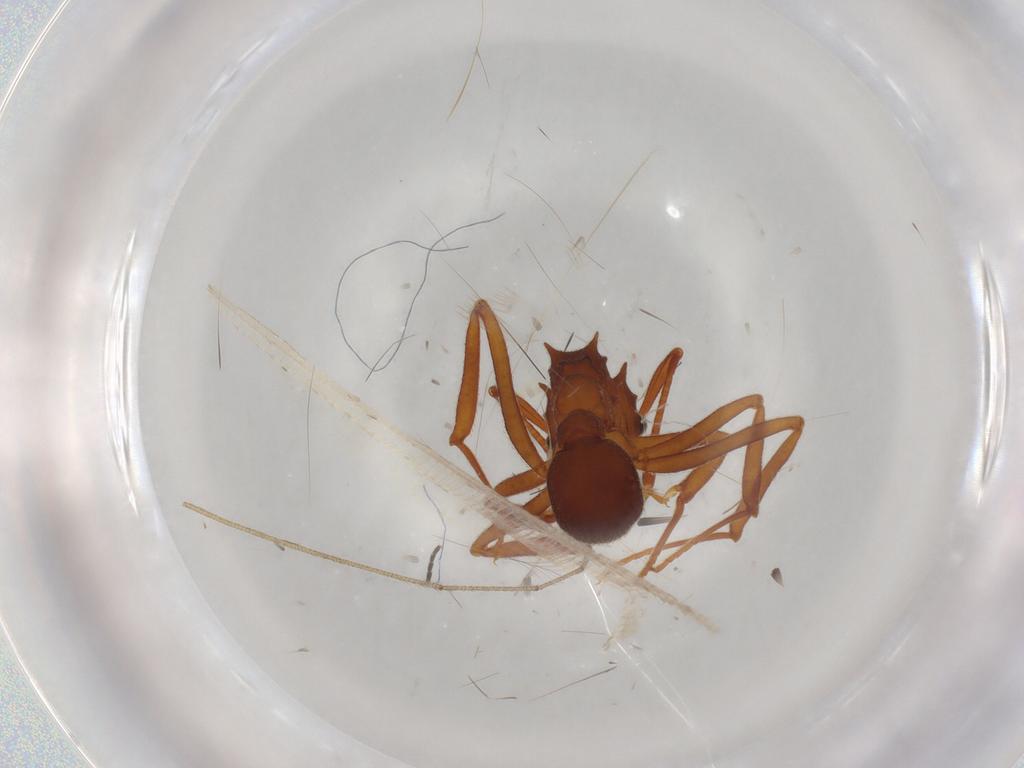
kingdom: Animalia
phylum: Arthropoda
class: Insecta
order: Hymenoptera
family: Formicidae
